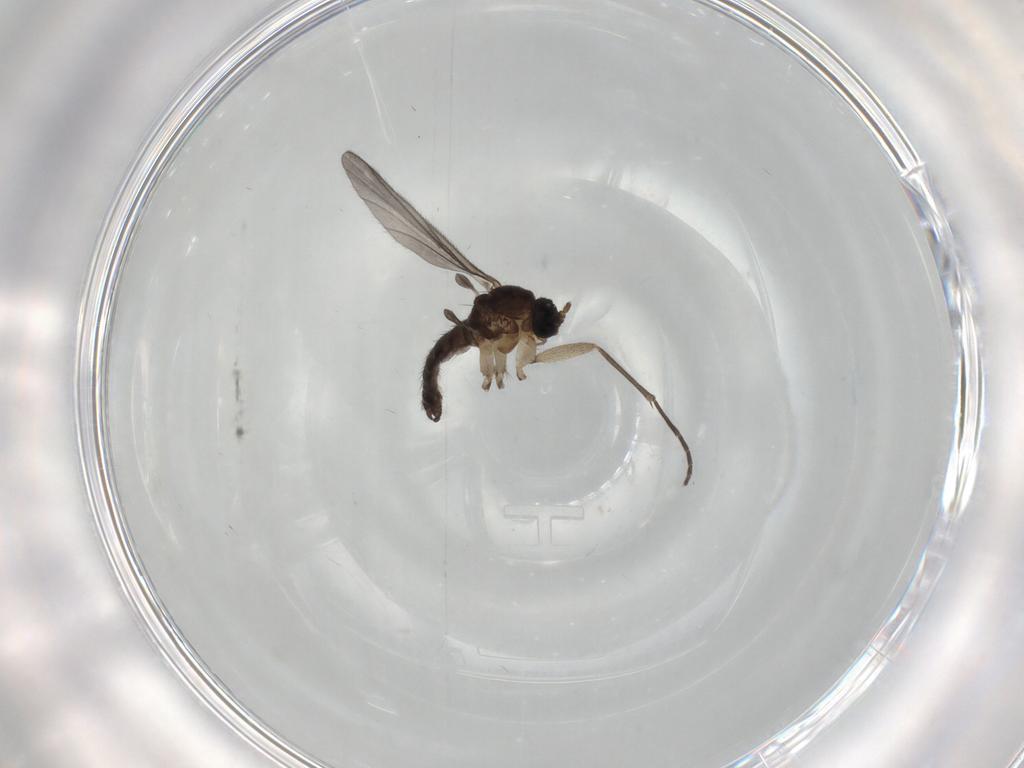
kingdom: Animalia
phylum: Arthropoda
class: Insecta
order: Diptera
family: Sciaridae
